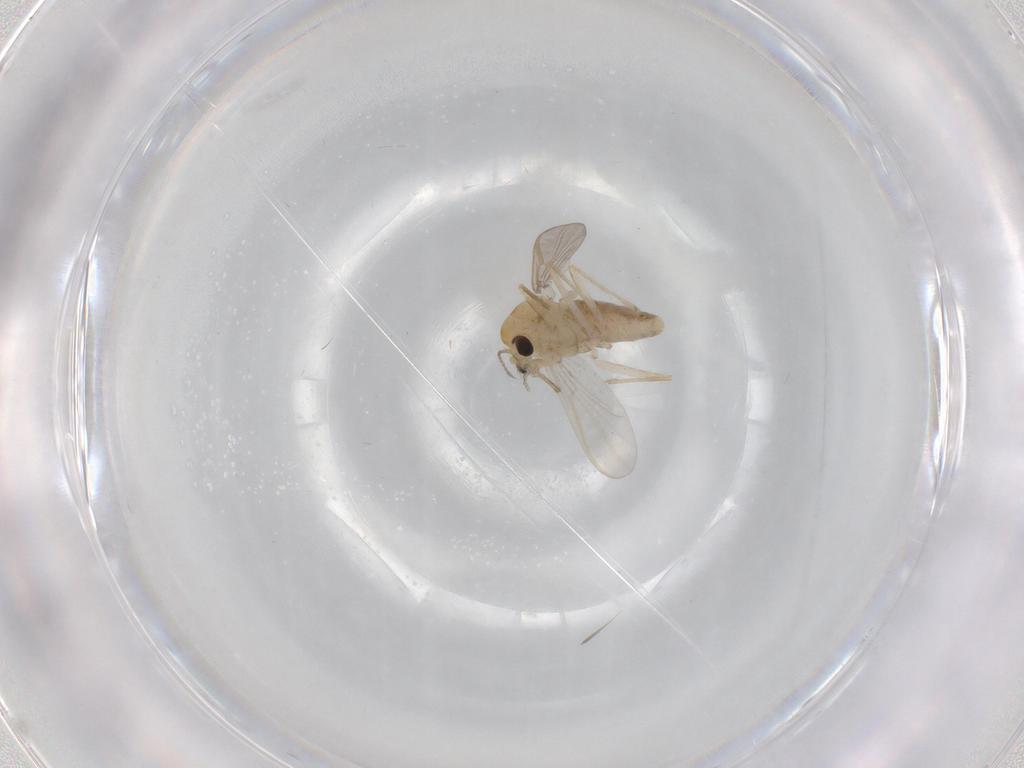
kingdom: Animalia
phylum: Arthropoda
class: Insecta
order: Diptera
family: Chironomidae
